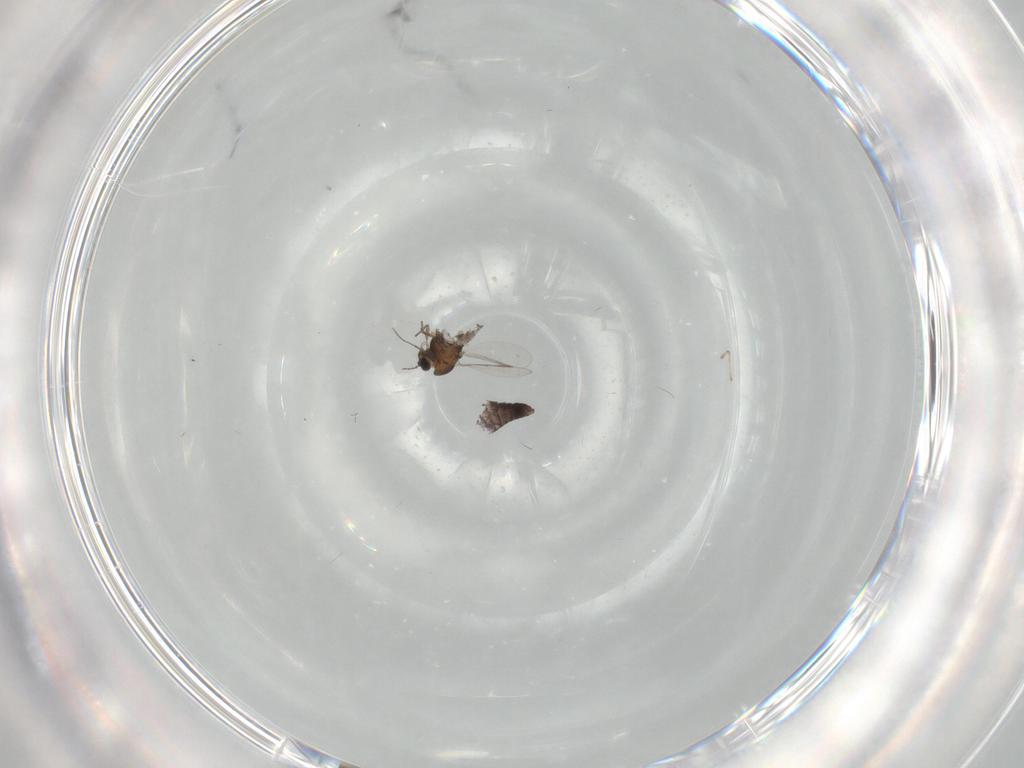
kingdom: Animalia
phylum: Arthropoda
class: Insecta
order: Diptera
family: Chironomidae
